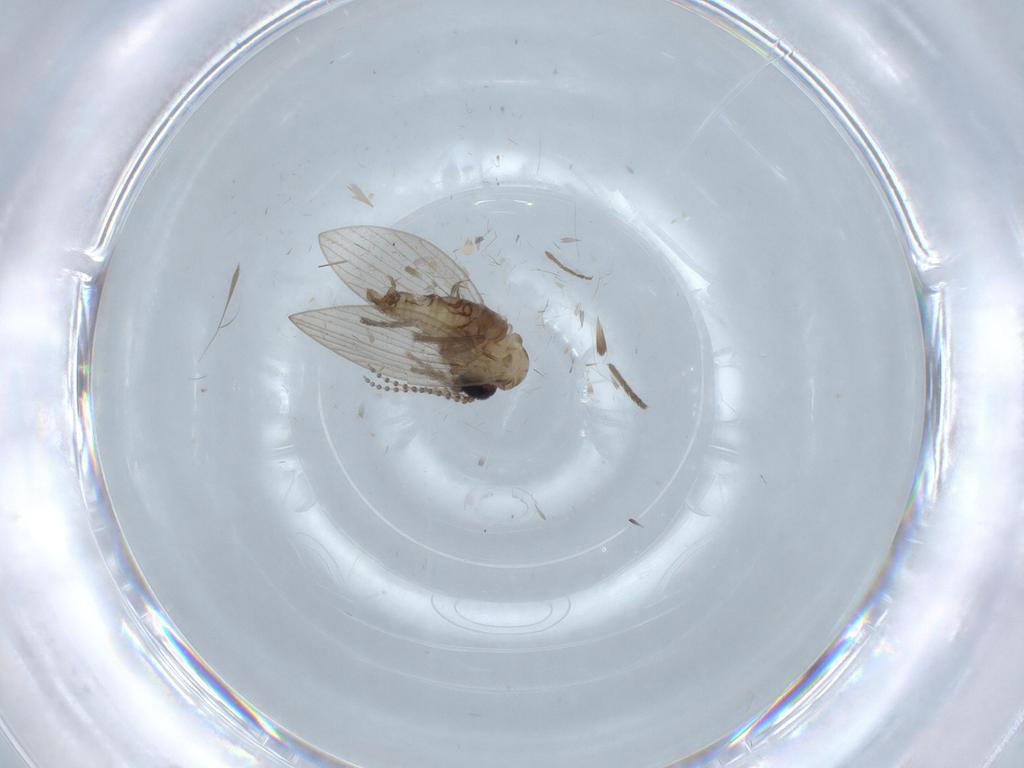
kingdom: Animalia
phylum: Arthropoda
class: Insecta
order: Diptera
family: Psychodidae
